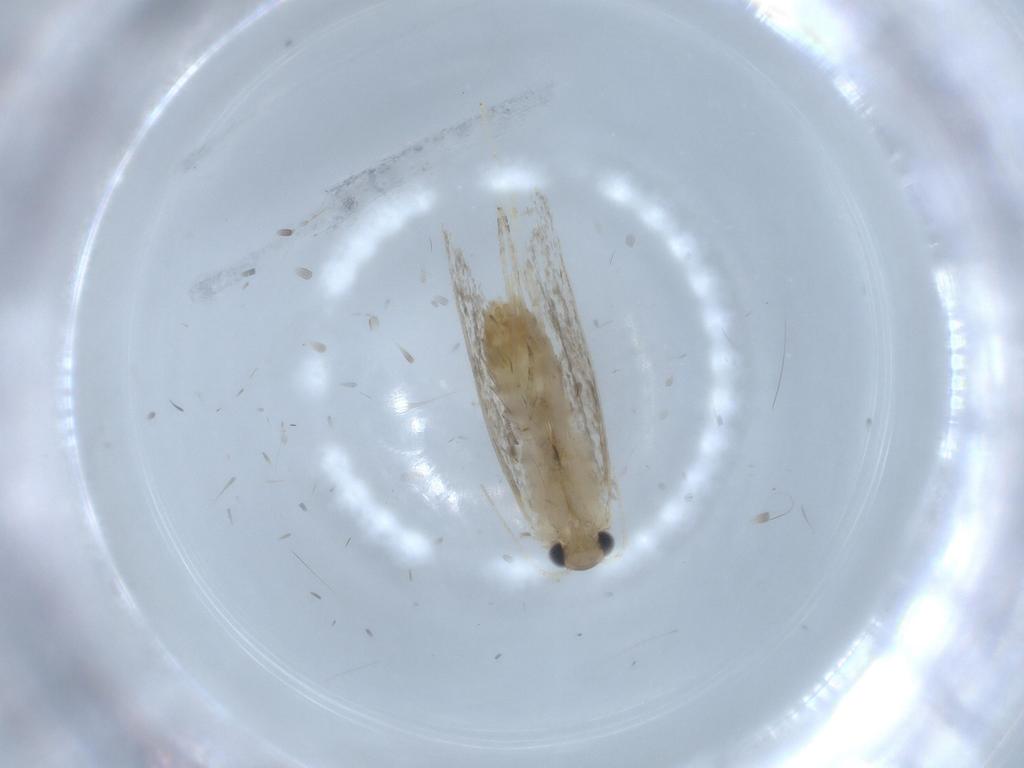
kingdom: Animalia
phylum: Arthropoda
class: Insecta
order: Lepidoptera
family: Tineidae
